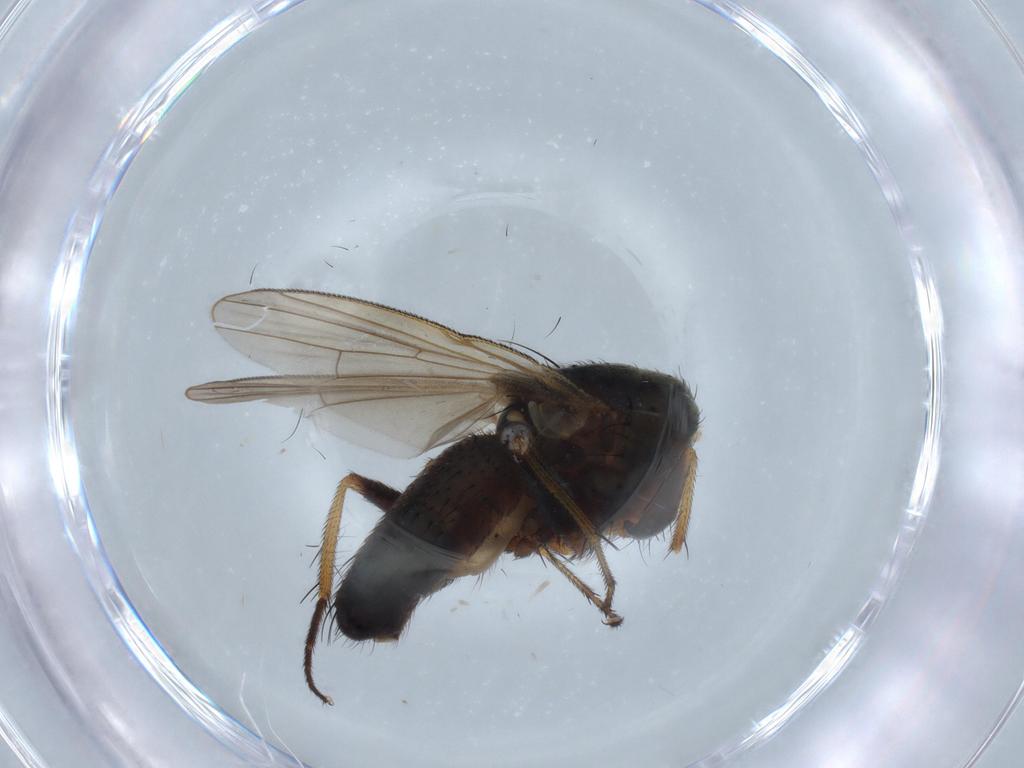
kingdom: Animalia
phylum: Arthropoda
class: Insecta
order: Diptera
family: Muscidae
